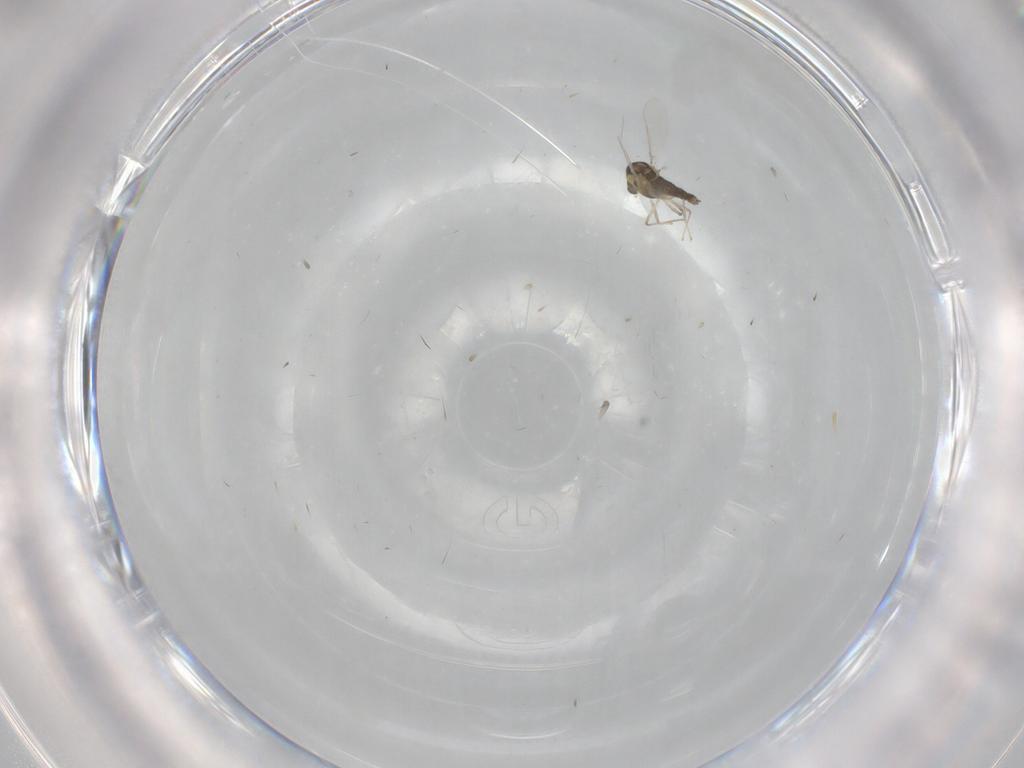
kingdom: Animalia
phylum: Arthropoda
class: Insecta
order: Diptera
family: Chironomidae
